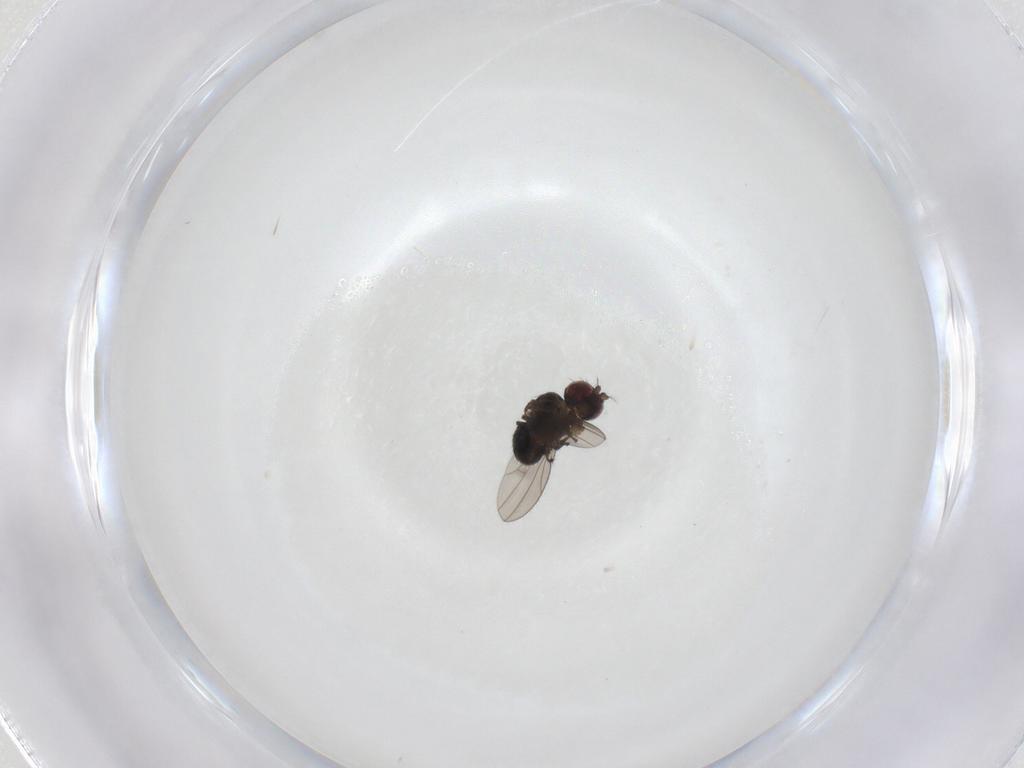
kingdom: Animalia
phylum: Arthropoda
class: Insecta
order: Diptera
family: Ephydridae
